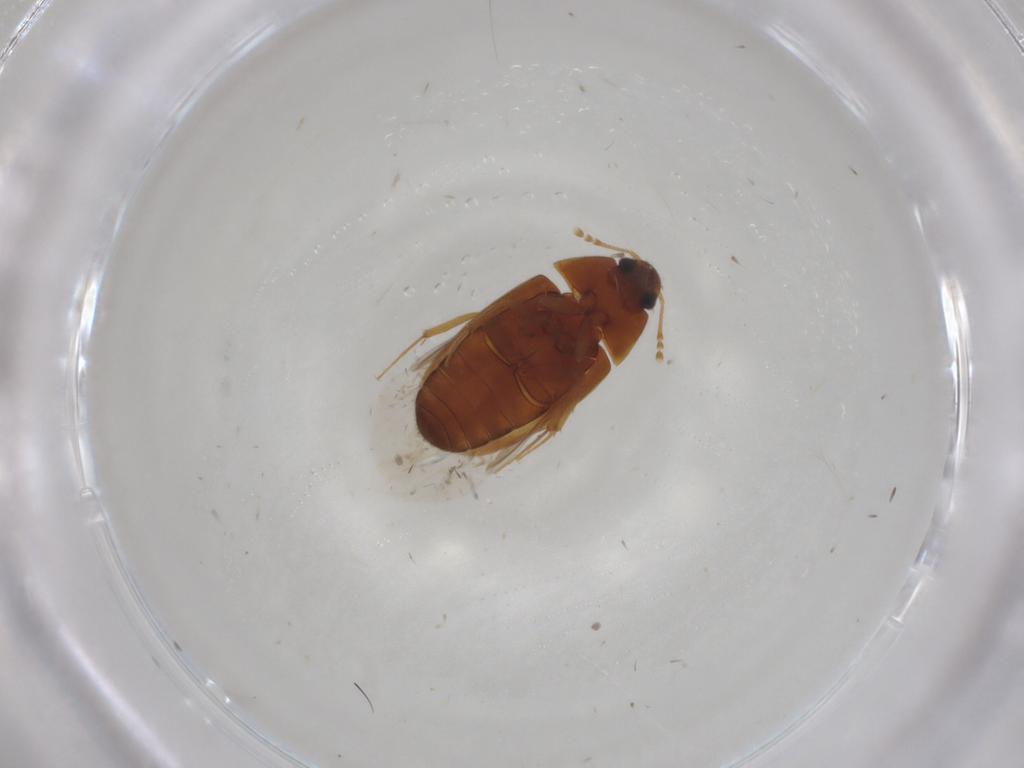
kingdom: Animalia
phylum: Arthropoda
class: Insecta
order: Coleoptera
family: Mycetophagidae
